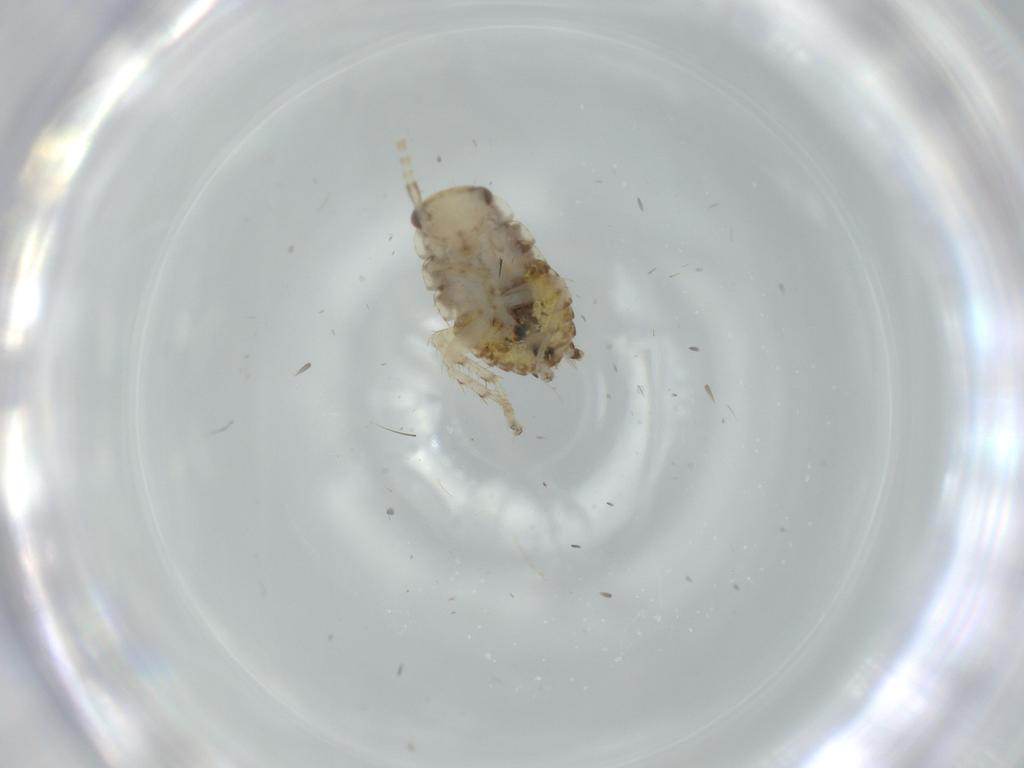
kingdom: Animalia
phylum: Arthropoda
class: Insecta
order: Blattodea
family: Ectobiidae
